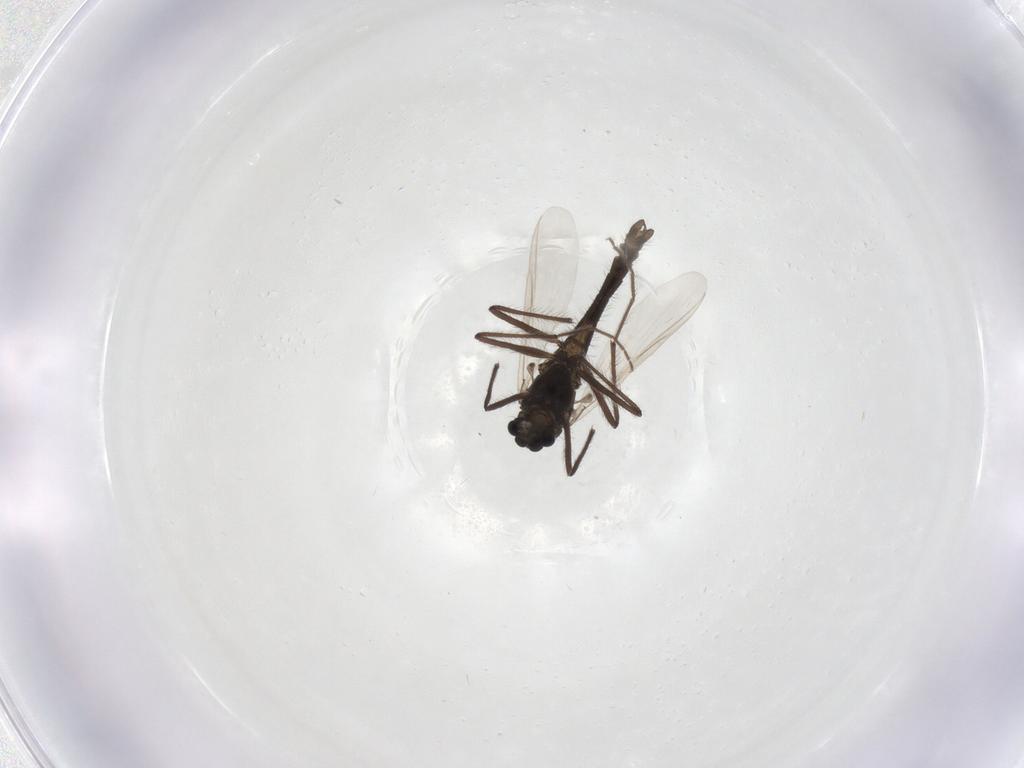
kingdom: Animalia
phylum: Arthropoda
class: Insecta
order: Diptera
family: Chironomidae
